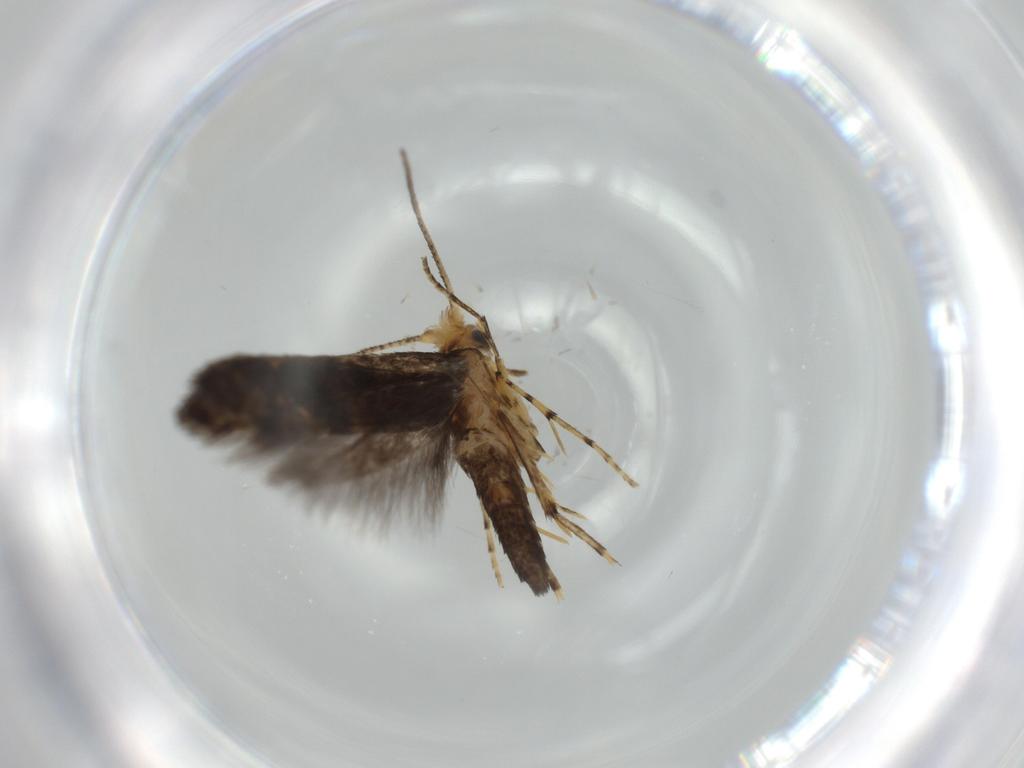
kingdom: Animalia
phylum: Arthropoda
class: Insecta
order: Lepidoptera
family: Argyresthiidae
